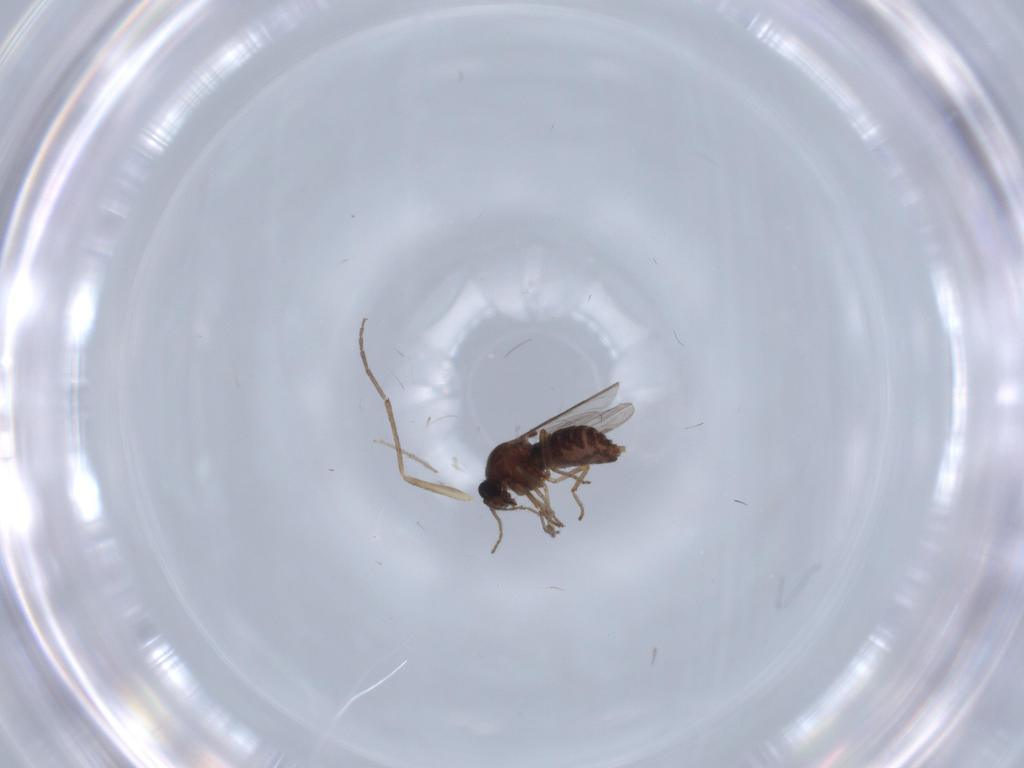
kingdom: Animalia
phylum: Arthropoda
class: Insecta
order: Diptera
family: Ceratopogonidae
